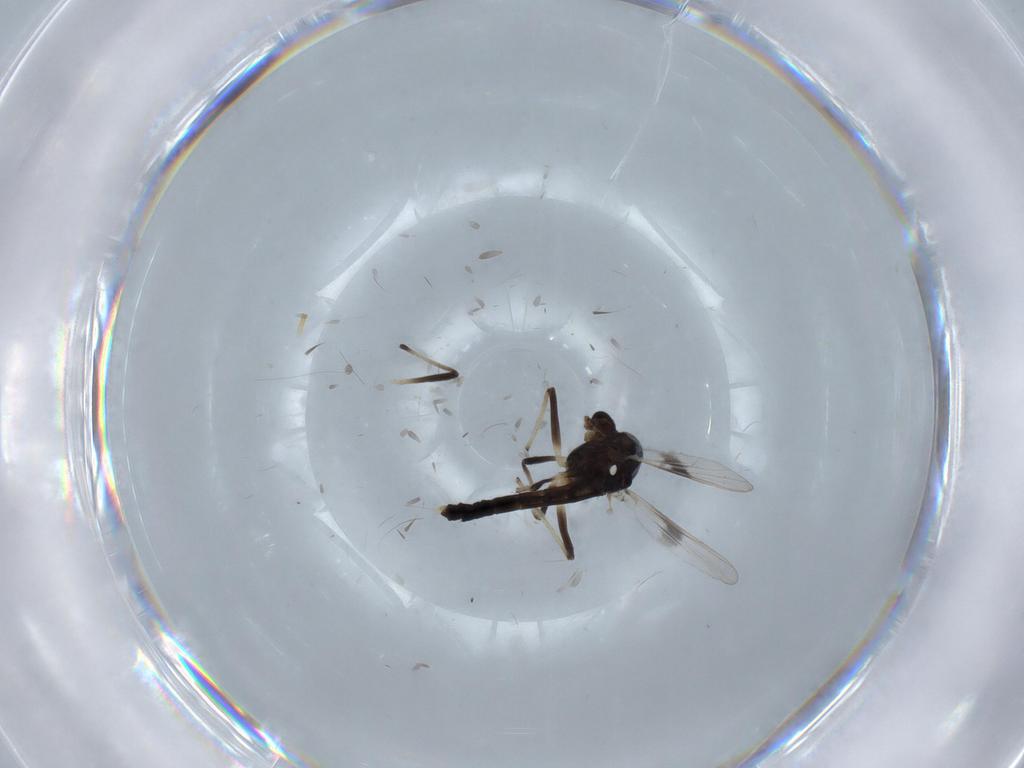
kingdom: Animalia
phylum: Arthropoda
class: Insecta
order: Diptera
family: Chironomidae
